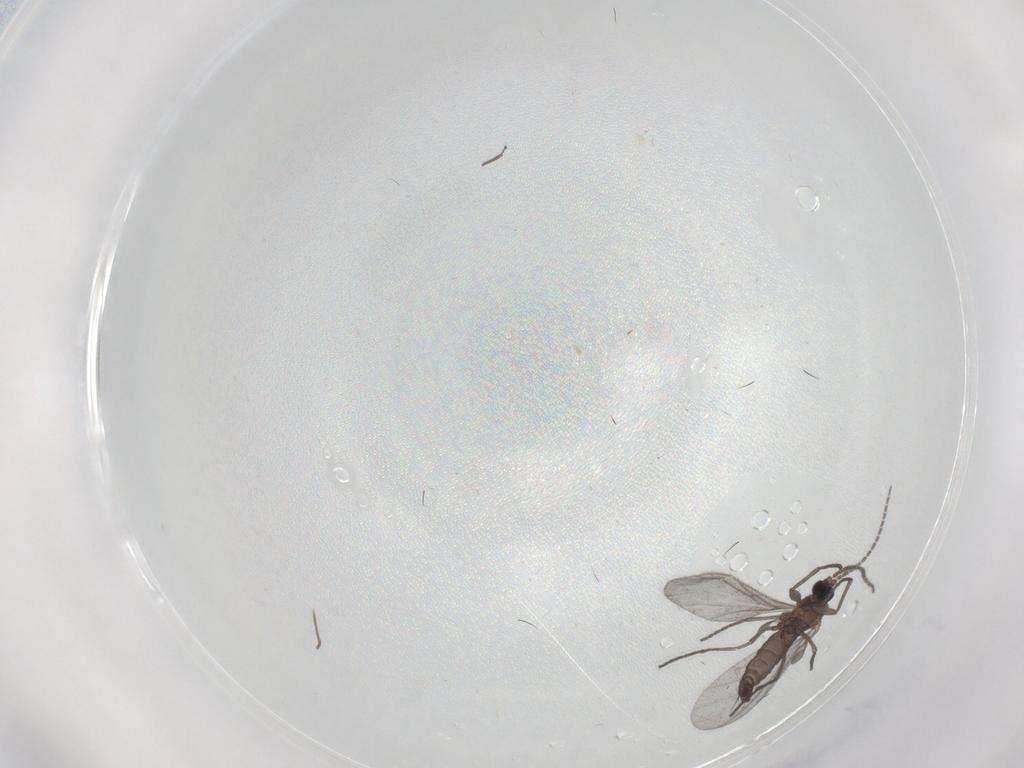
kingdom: Animalia
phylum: Arthropoda
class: Insecta
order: Diptera
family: Sciaridae
